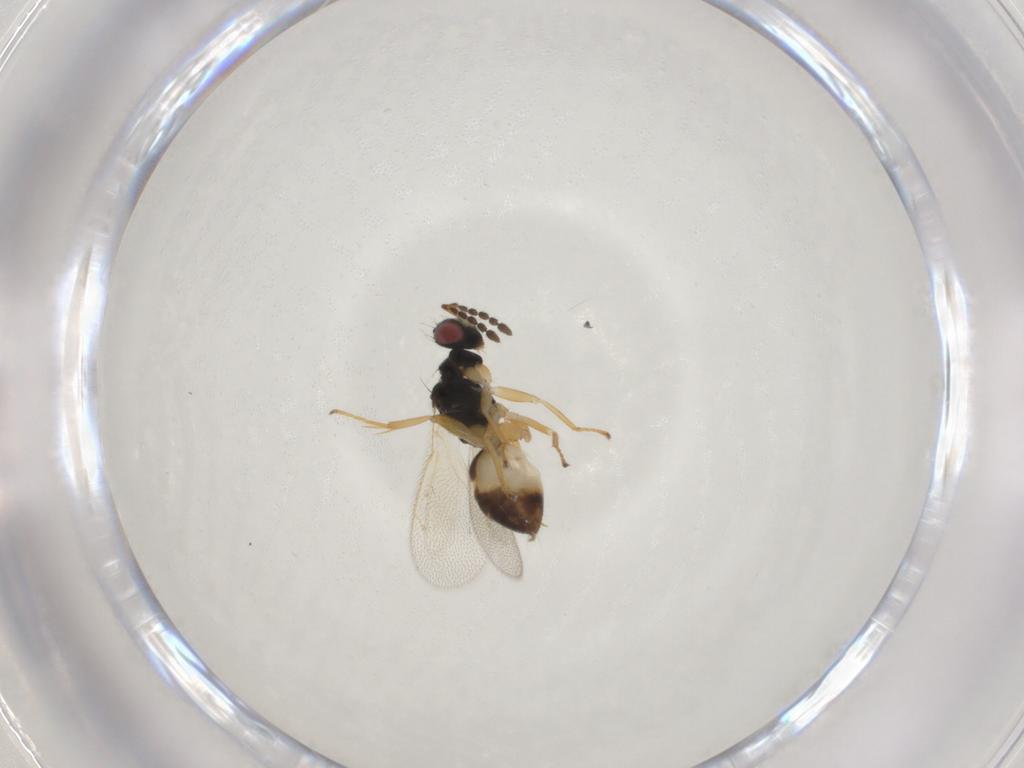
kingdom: Animalia
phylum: Arthropoda
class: Insecta
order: Hymenoptera
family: Eulophidae
